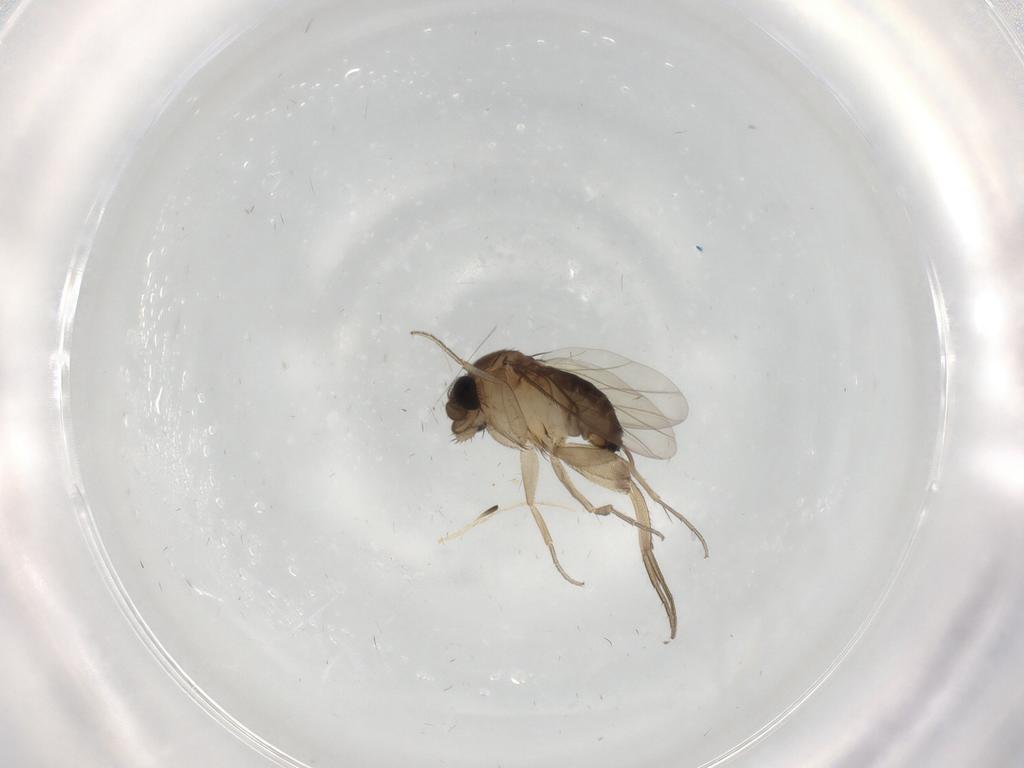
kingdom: Animalia
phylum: Arthropoda
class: Insecta
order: Diptera
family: Phoridae
